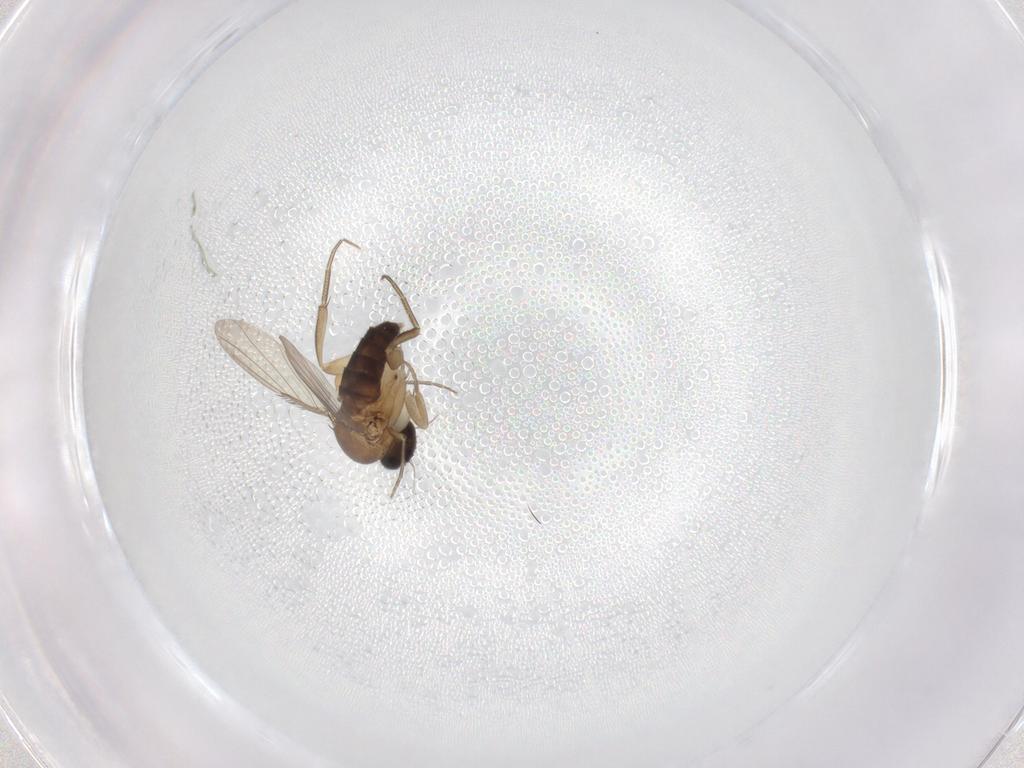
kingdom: Animalia
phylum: Arthropoda
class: Insecta
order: Diptera
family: Phoridae
